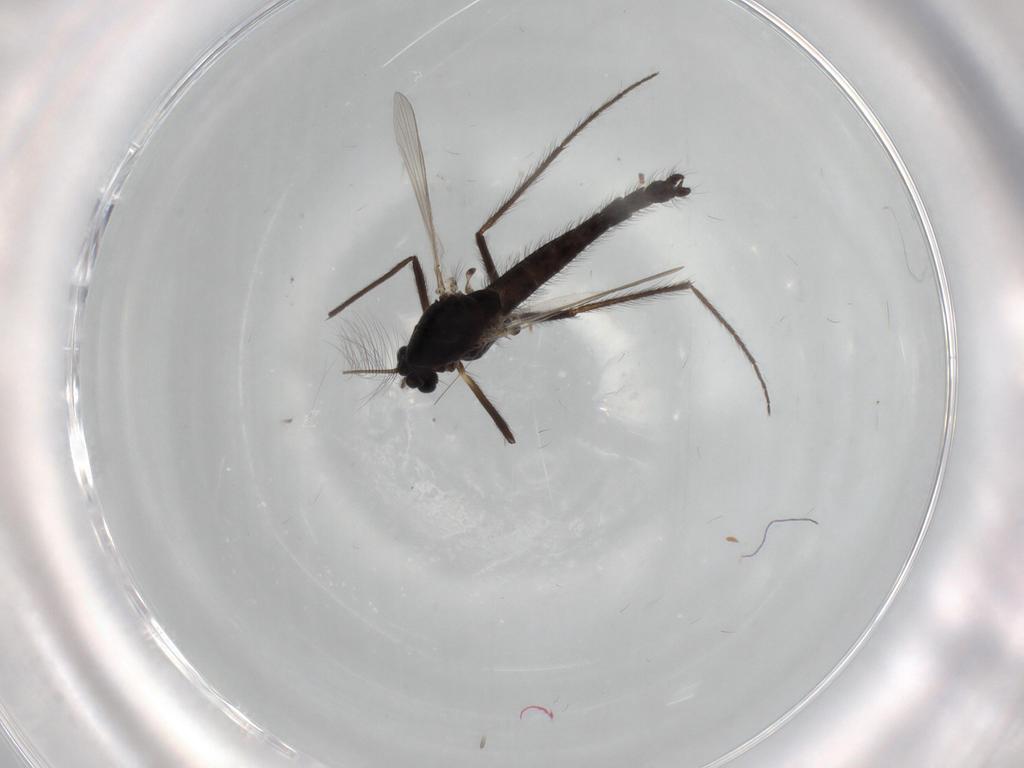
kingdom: Animalia
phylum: Arthropoda
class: Insecta
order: Diptera
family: Chironomidae
